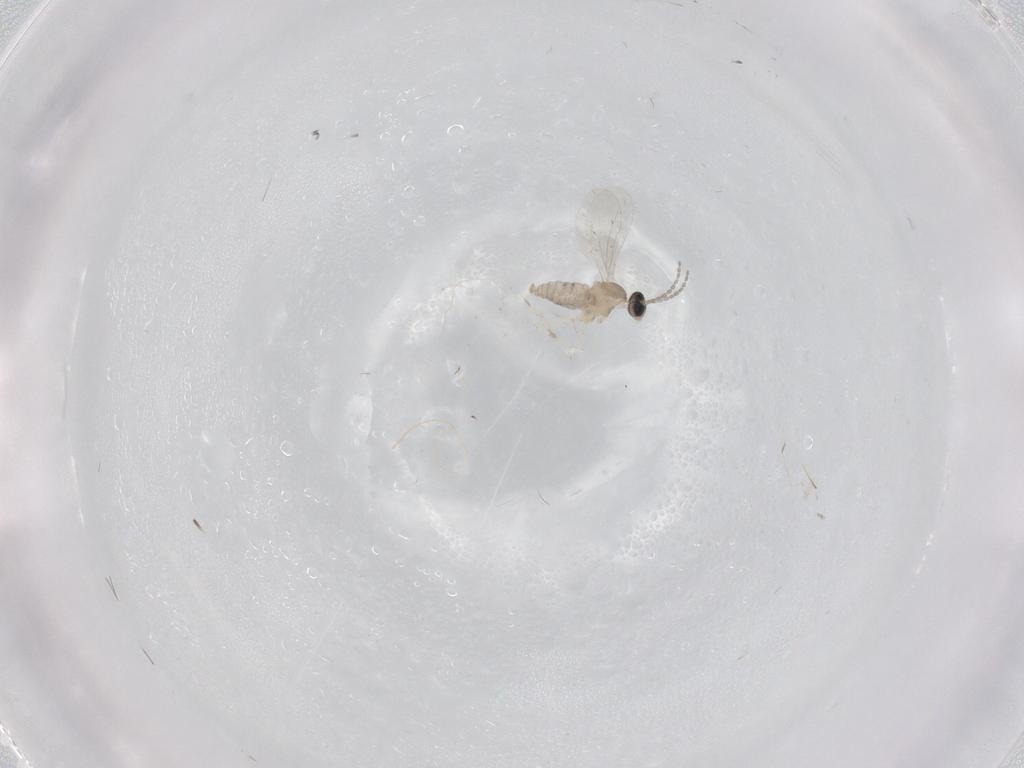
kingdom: Animalia
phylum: Arthropoda
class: Insecta
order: Diptera
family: Cecidomyiidae
